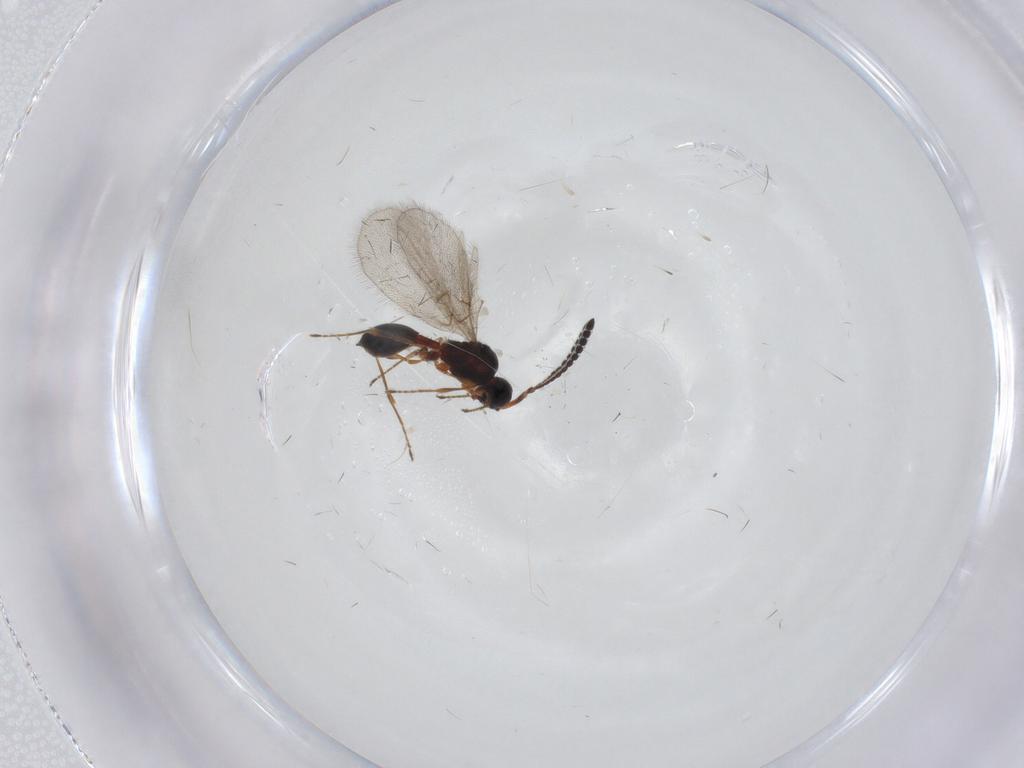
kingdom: Animalia
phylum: Arthropoda
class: Insecta
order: Hymenoptera
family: Diapriidae
